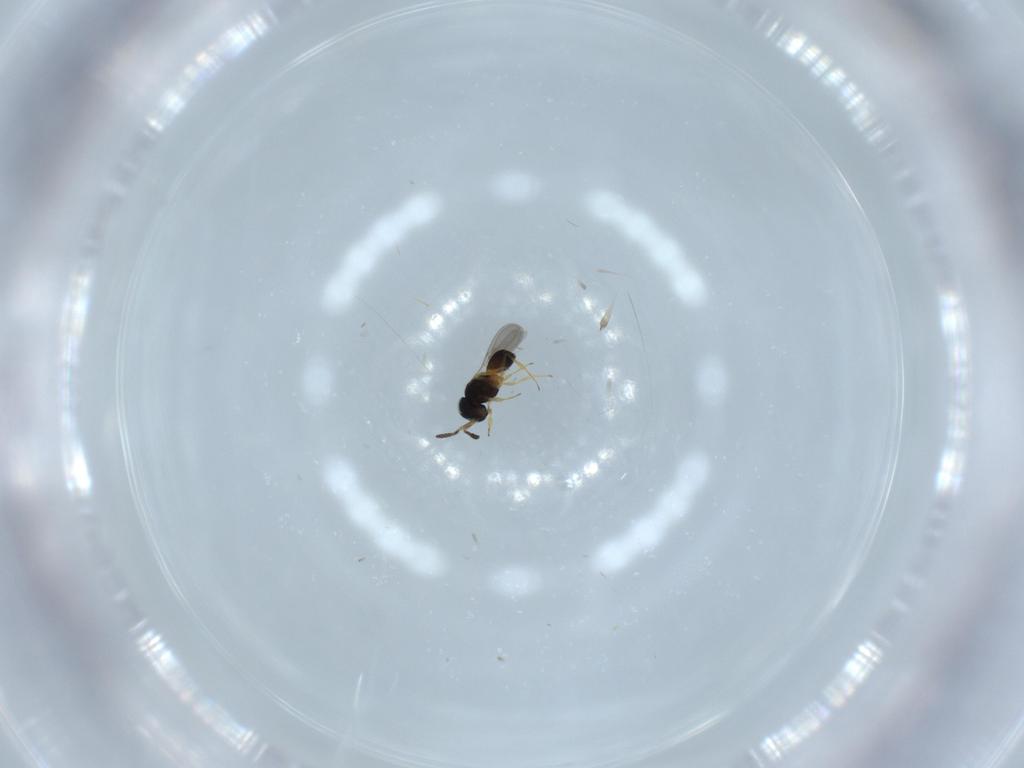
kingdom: Animalia
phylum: Arthropoda
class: Insecta
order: Hymenoptera
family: Scelionidae
